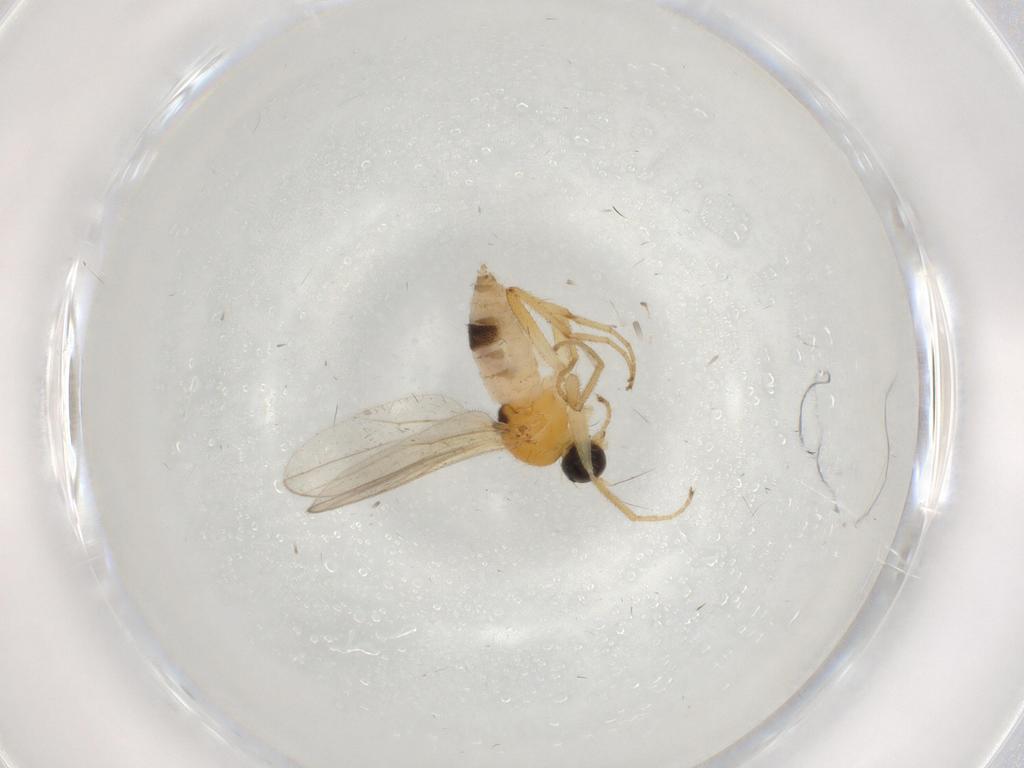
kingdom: Animalia
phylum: Arthropoda
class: Insecta
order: Diptera
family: Hybotidae
